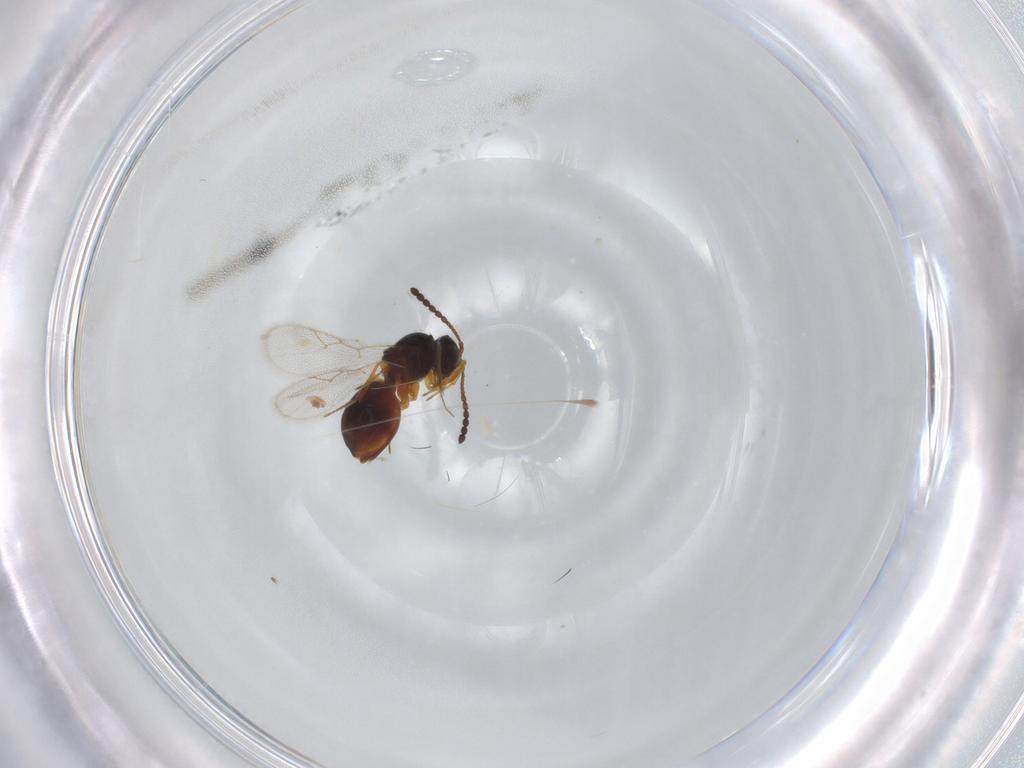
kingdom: Animalia
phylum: Arthropoda
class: Insecta
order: Hymenoptera
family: Figitidae
